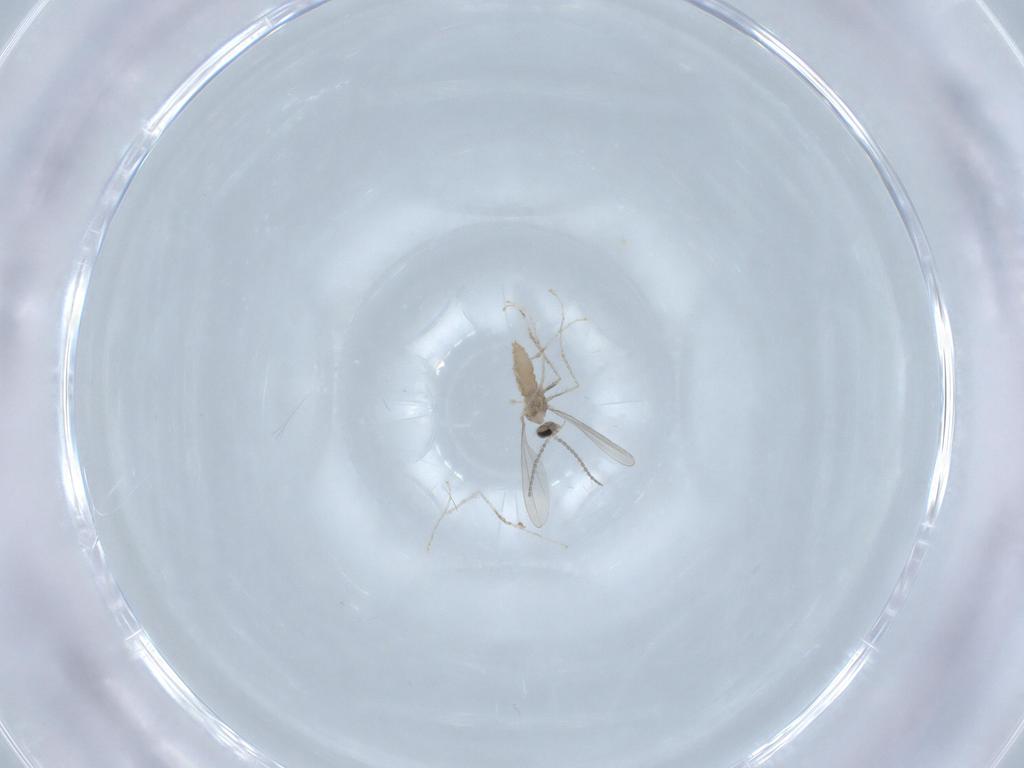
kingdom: Animalia
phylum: Arthropoda
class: Insecta
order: Diptera
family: Cecidomyiidae
